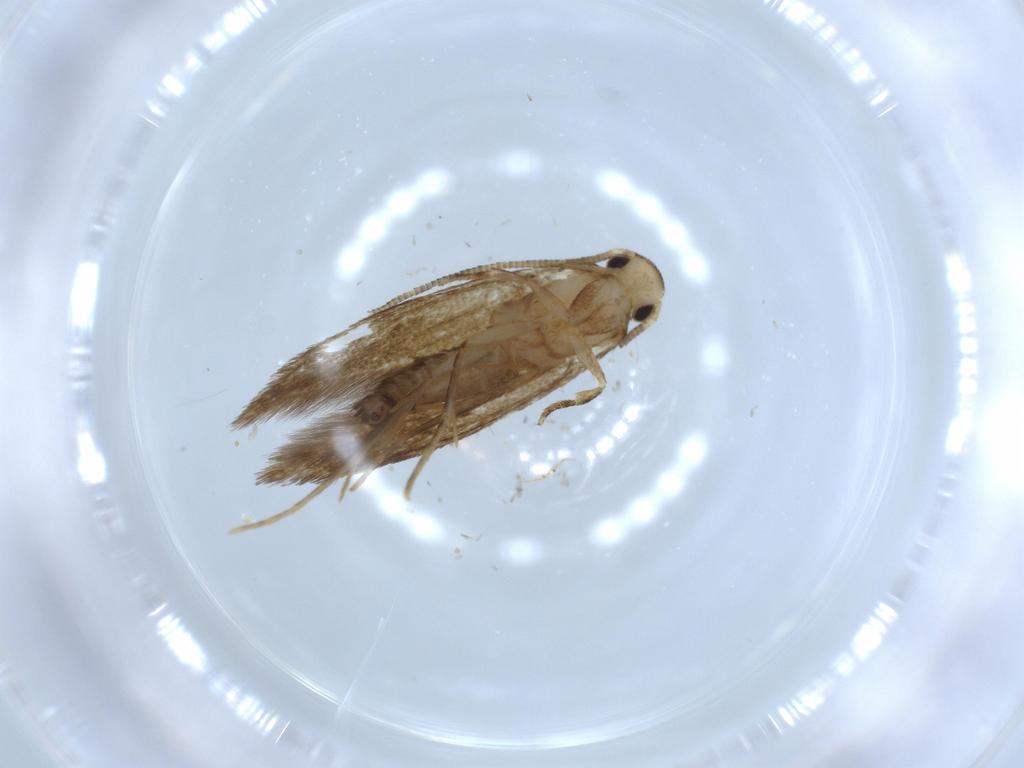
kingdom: Animalia
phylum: Arthropoda
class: Insecta
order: Lepidoptera
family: Tineidae
